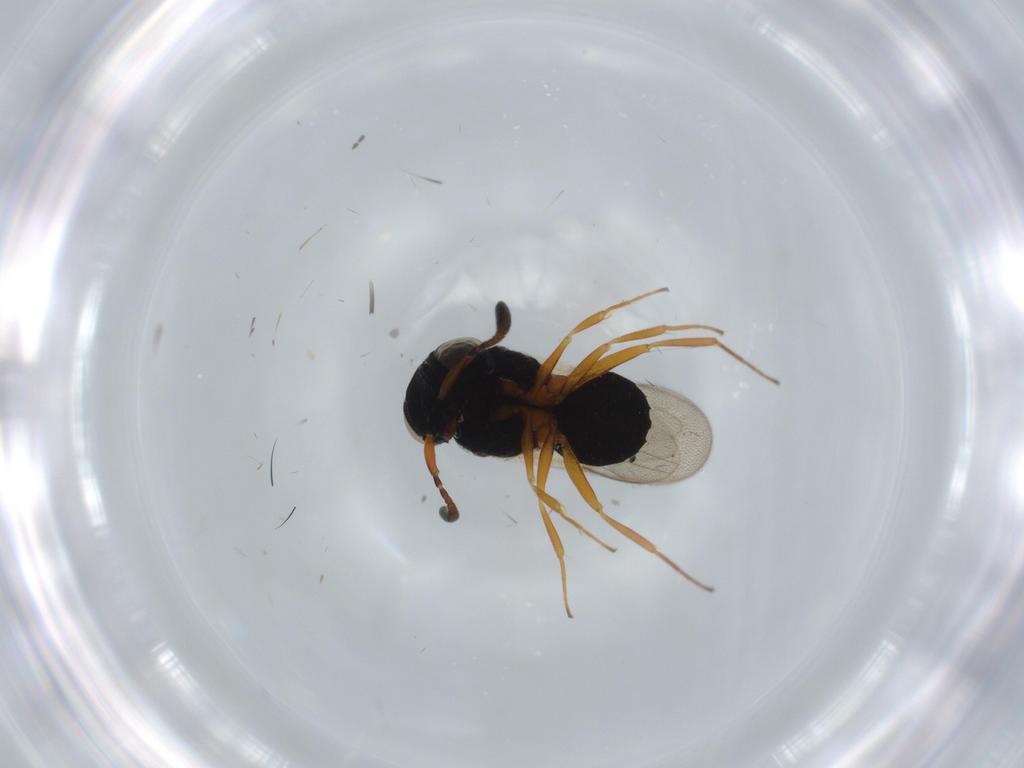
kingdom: Animalia
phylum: Arthropoda
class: Insecta
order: Hymenoptera
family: Scelionidae
